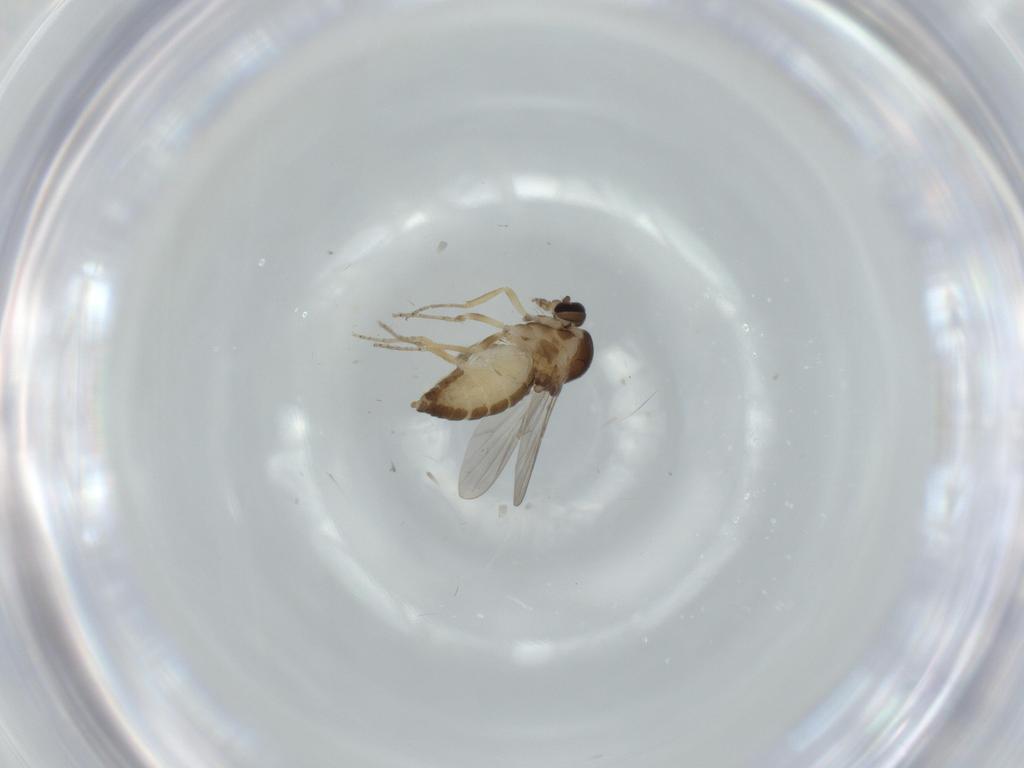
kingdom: Animalia
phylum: Arthropoda
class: Insecta
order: Diptera
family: Ceratopogonidae
